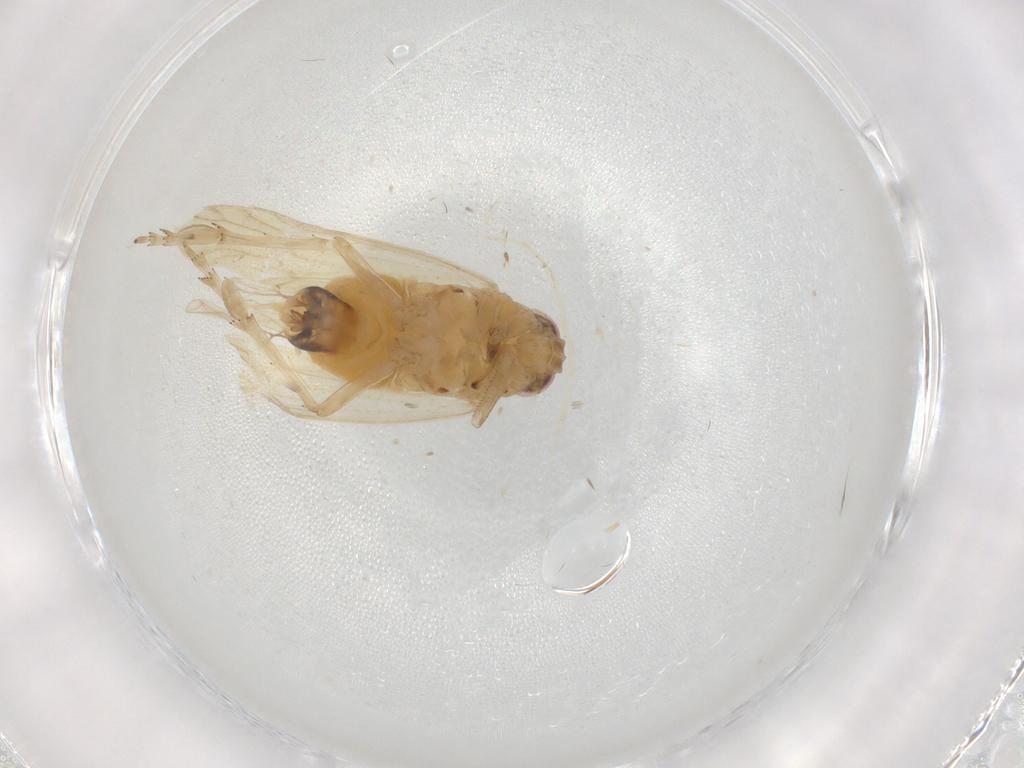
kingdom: Animalia
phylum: Arthropoda
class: Insecta
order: Hemiptera
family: Delphacidae
